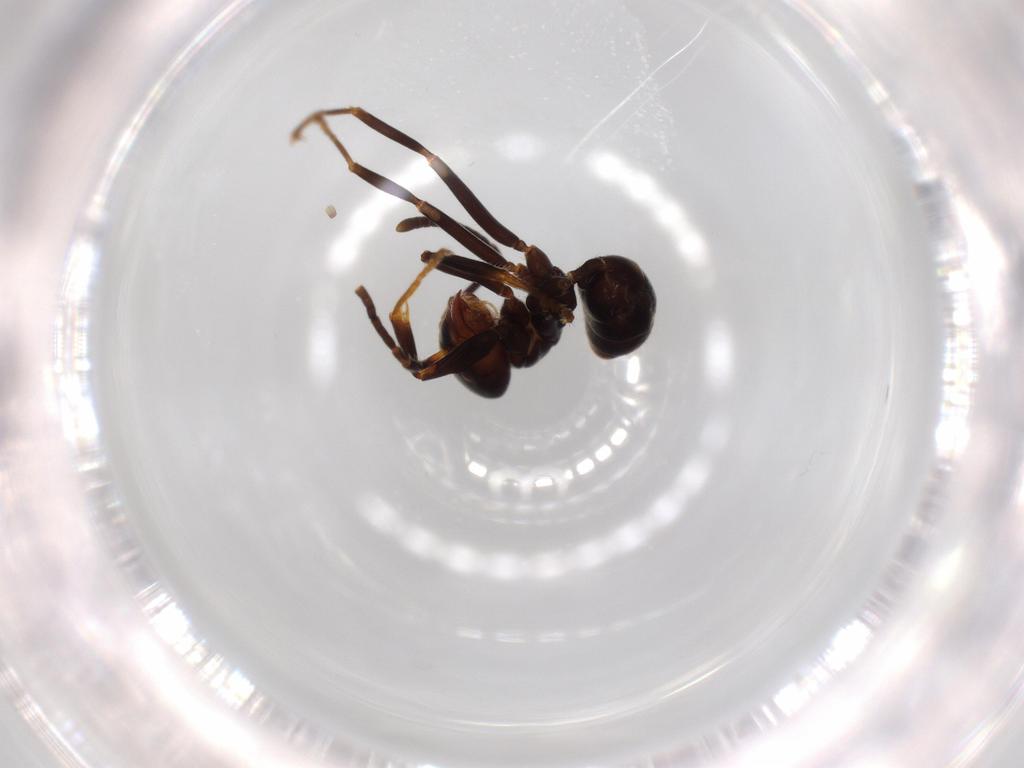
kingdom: Animalia
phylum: Arthropoda
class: Insecta
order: Hymenoptera
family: Formicidae
